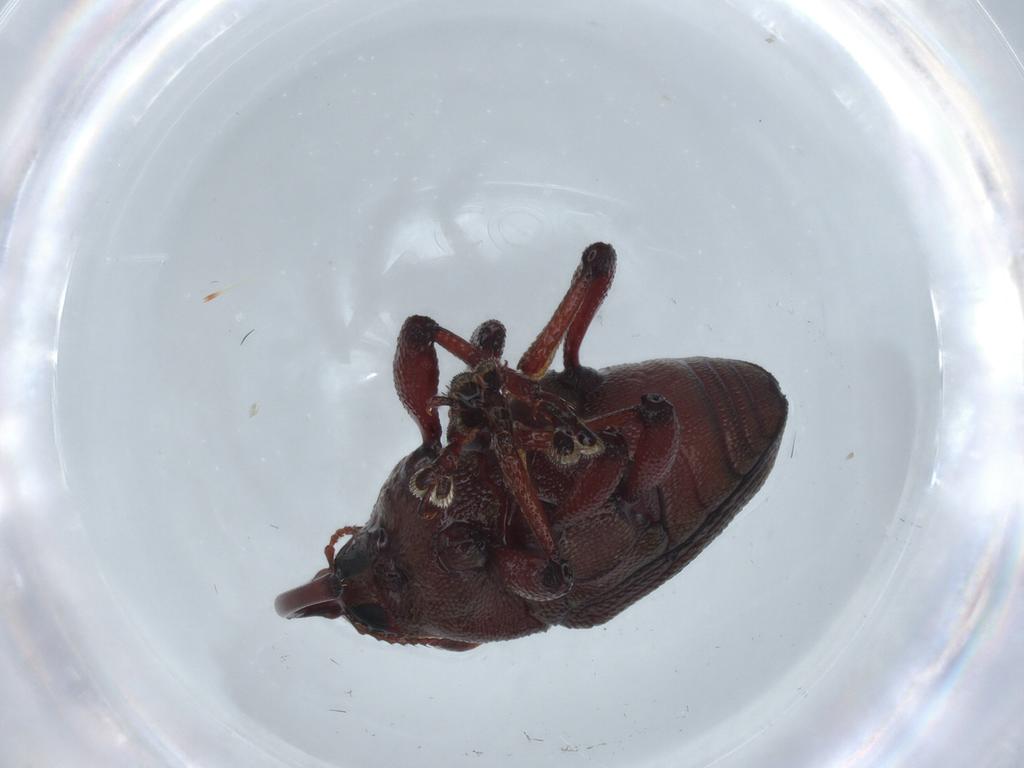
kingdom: Animalia
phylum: Arthropoda
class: Insecta
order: Coleoptera
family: Curculionidae
